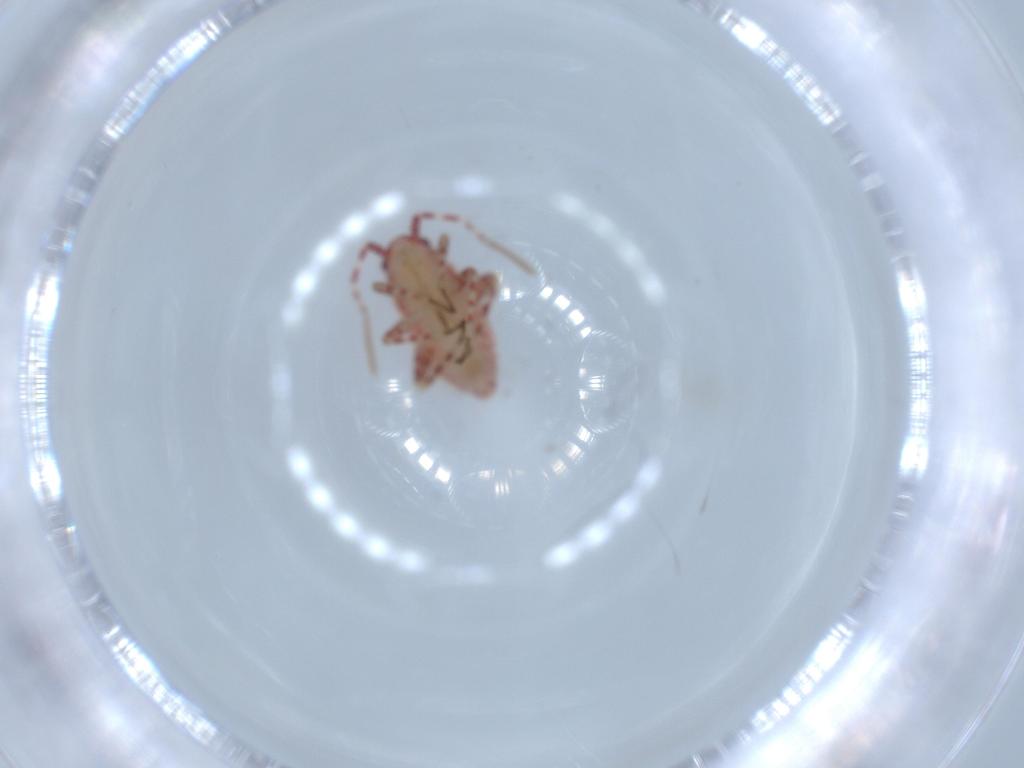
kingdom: Animalia
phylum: Arthropoda
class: Insecta
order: Hemiptera
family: Miridae
